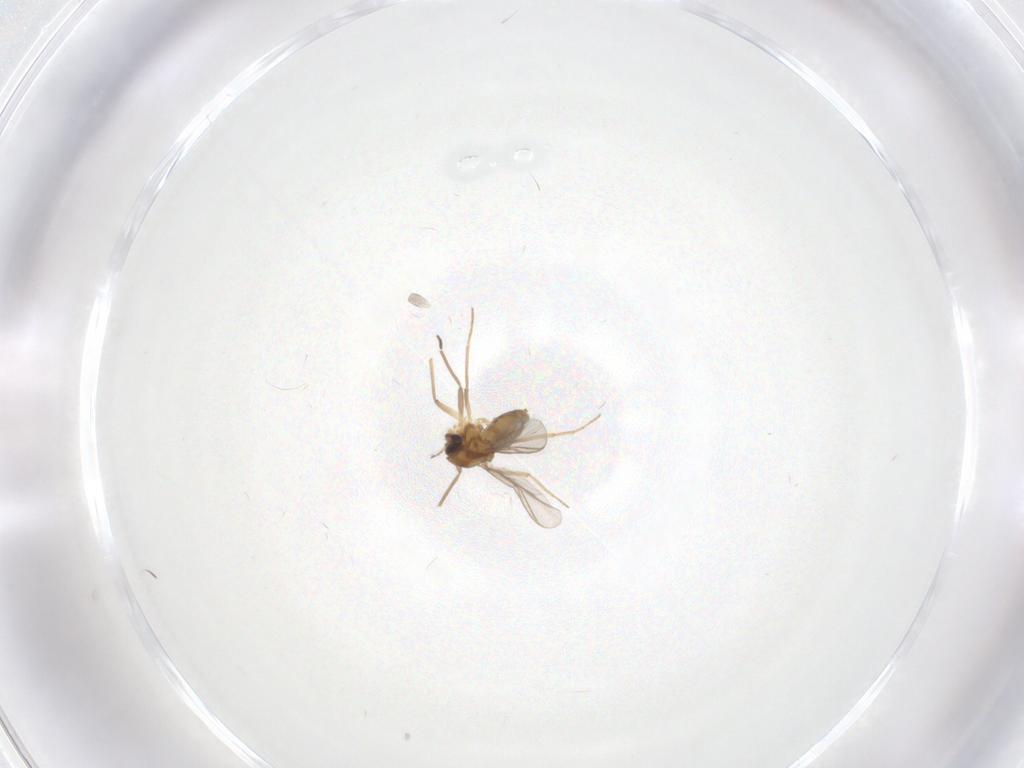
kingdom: Animalia
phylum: Arthropoda
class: Insecta
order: Diptera
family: Chironomidae
